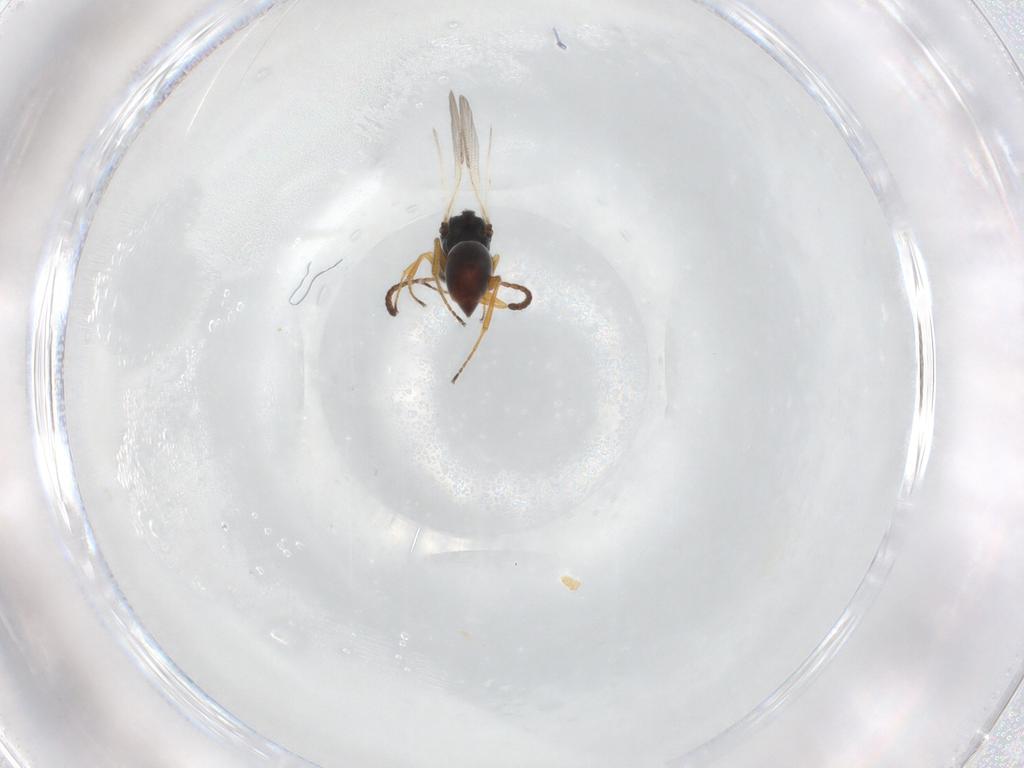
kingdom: Animalia
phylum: Arthropoda
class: Insecta
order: Hymenoptera
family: Figitidae
